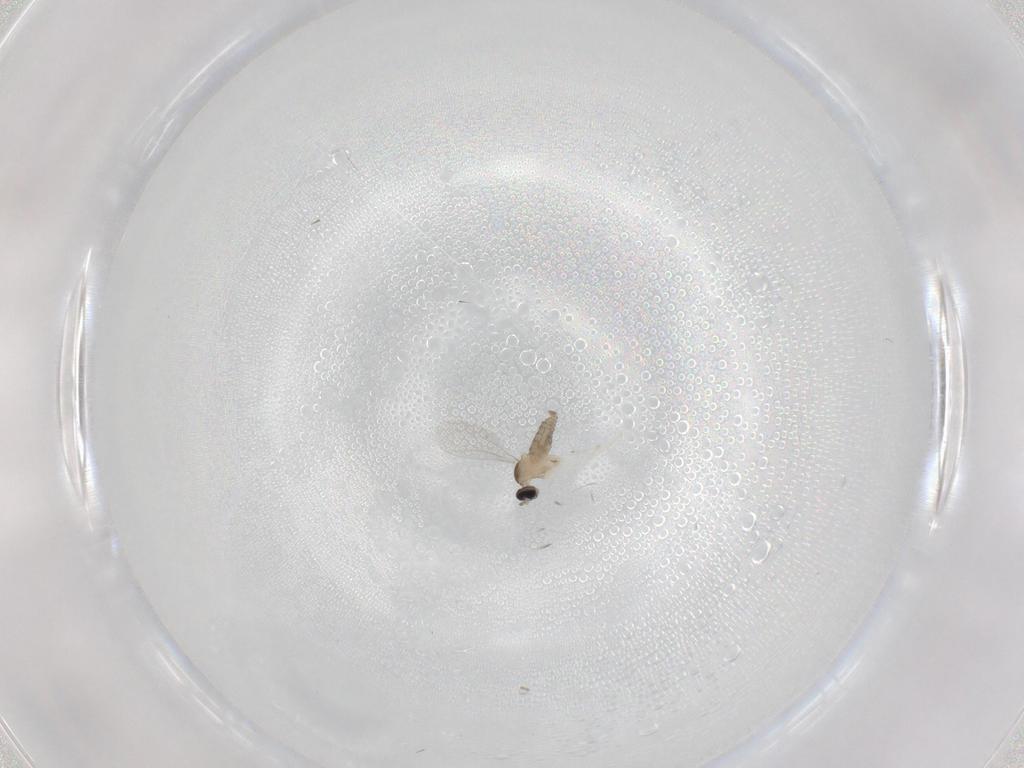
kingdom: Animalia
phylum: Arthropoda
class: Insecta
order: Diptera
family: Cecidomyiidae
